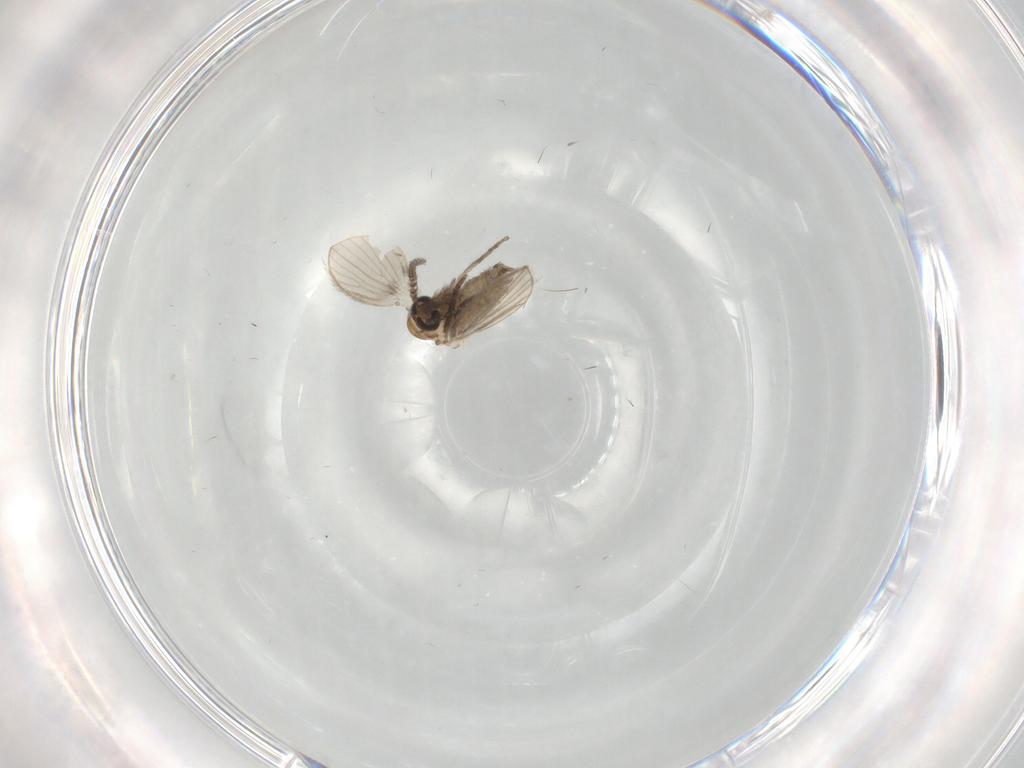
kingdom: Animalia
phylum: Arthropoda
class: Insecta
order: Diptera
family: Psychodidae
